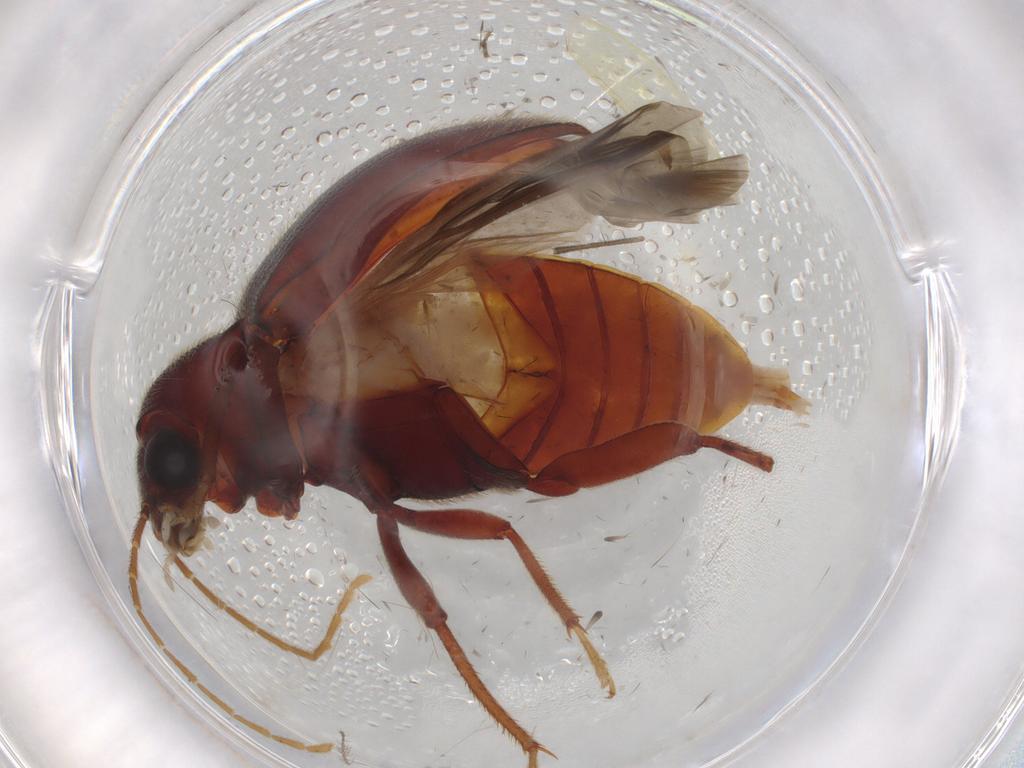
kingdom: Animalia
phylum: Arthropoda
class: Insecta
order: Coleoptera
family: Ptilodactylidae
